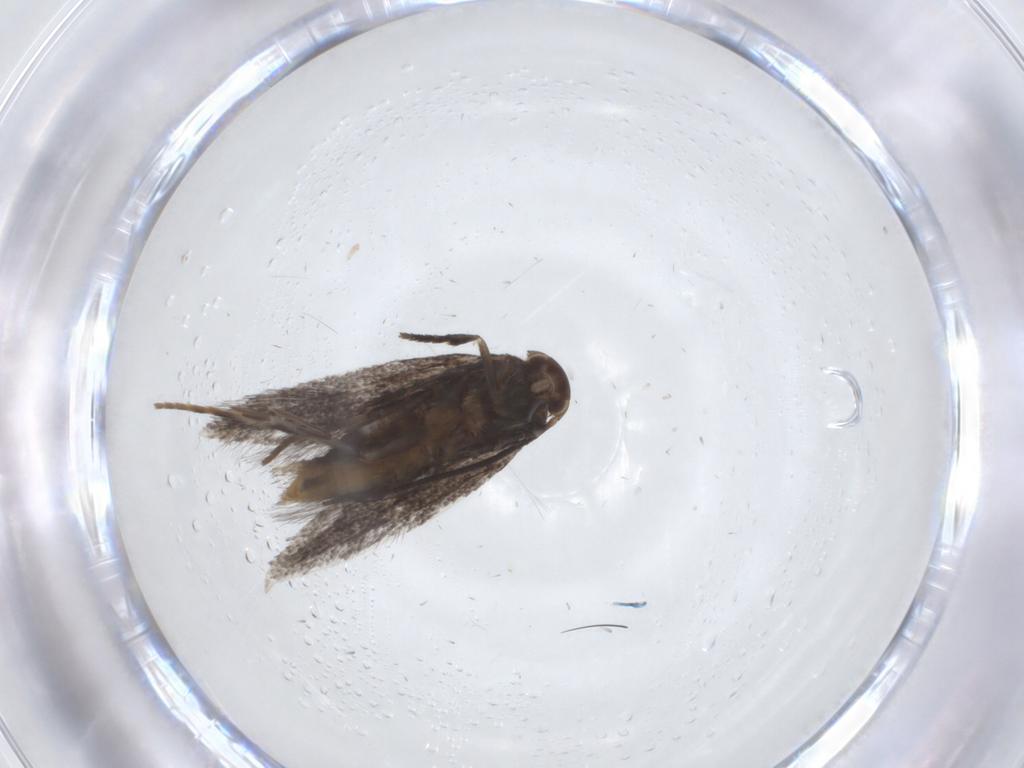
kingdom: Animalia
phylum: Arthropoda
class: Insecta
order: Lepidoptera
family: Elachistidae
